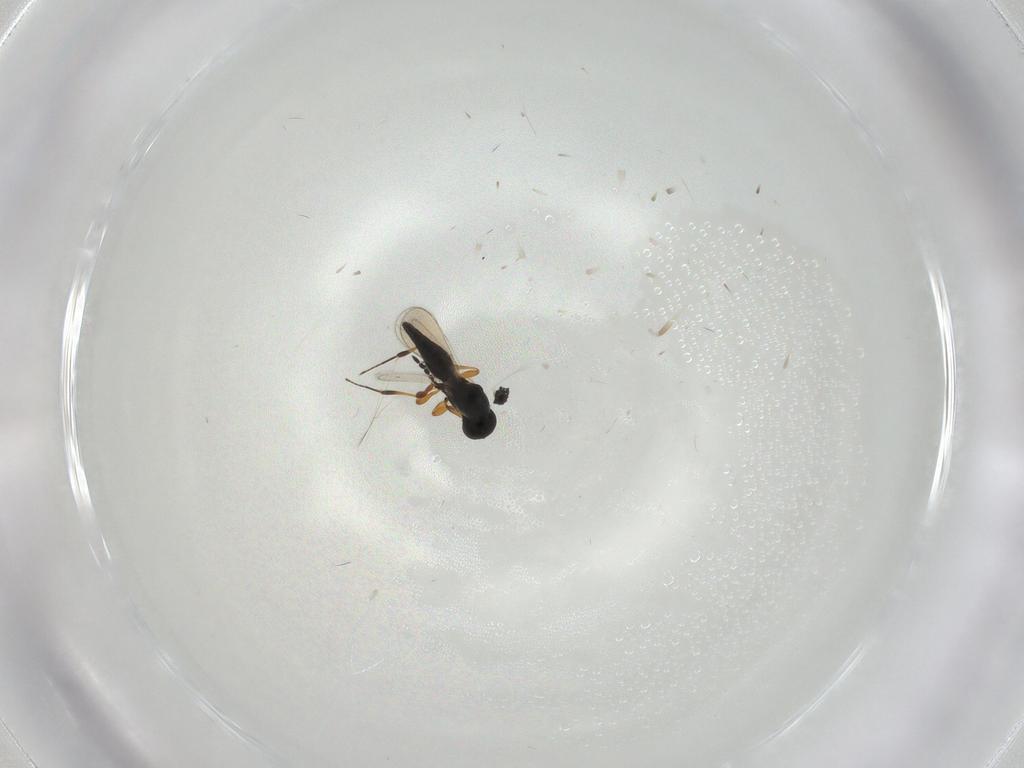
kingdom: Animalia
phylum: Arthropoda
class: Insecta
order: Hymenoptera
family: Platygastridae
